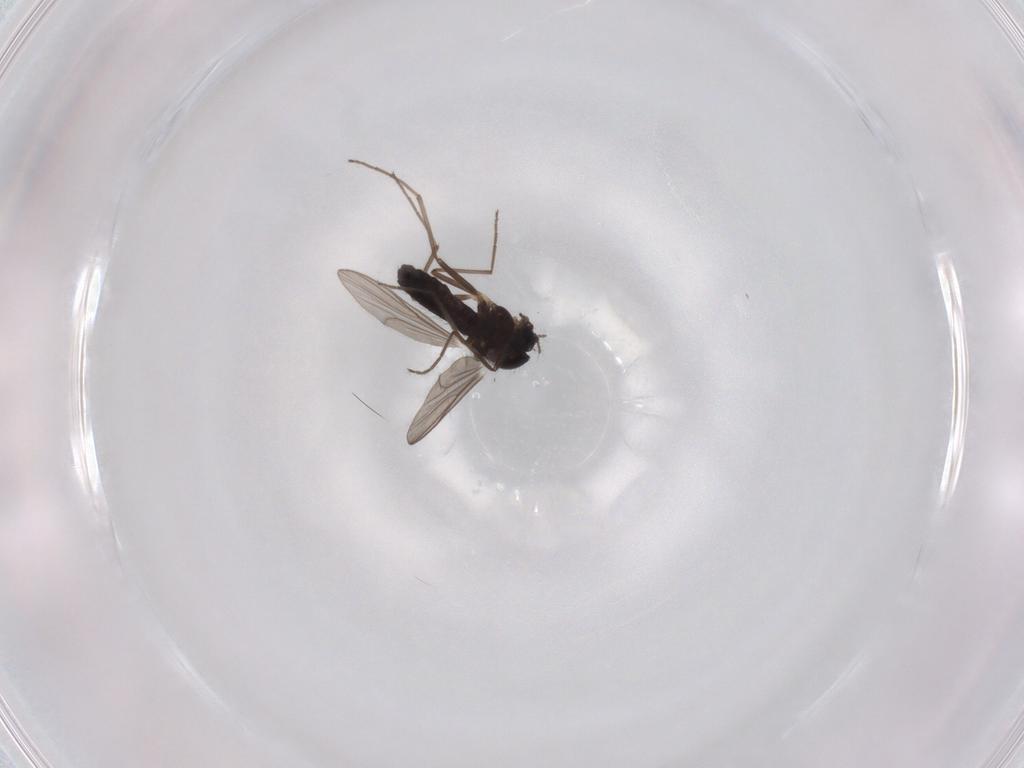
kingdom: Animalia
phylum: Arthropoda
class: Insecta
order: Diptera
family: Chironomidae
